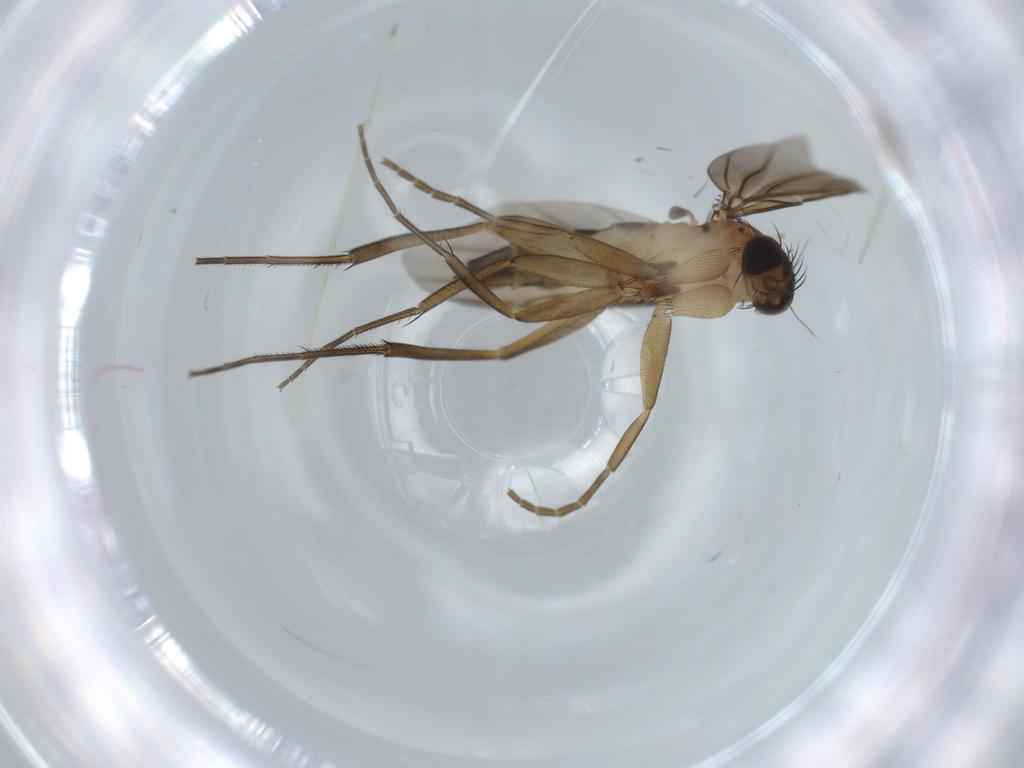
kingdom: Animalia
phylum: Arthropoda
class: Insecta
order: Diptera
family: Phoridae
